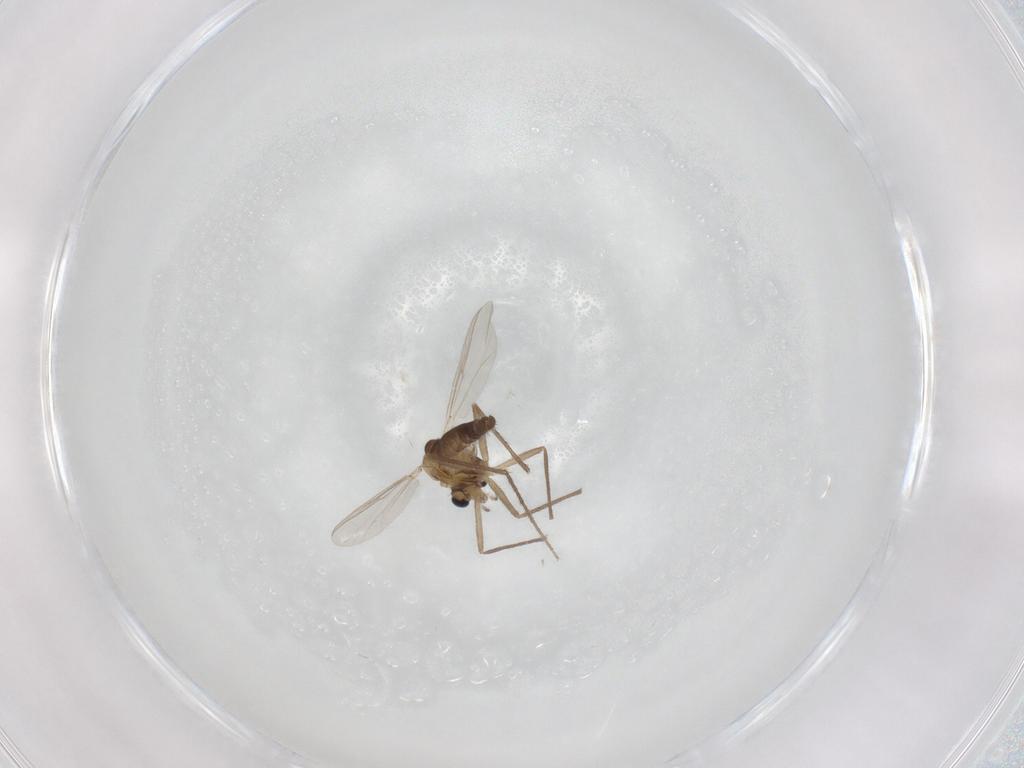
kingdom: Animalia
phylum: Arthropoda
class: Insecta
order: Diptera
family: Chironomidae
